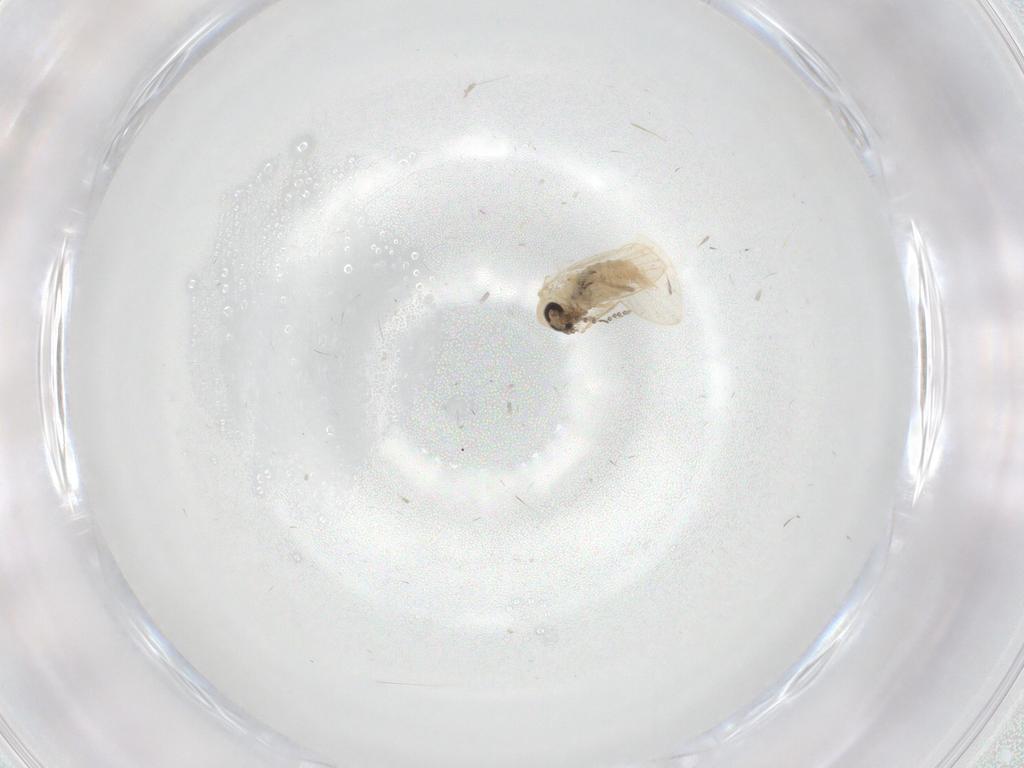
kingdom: Animalia
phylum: Arthropoda
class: Insecta
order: Diptera
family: Psychodidae
